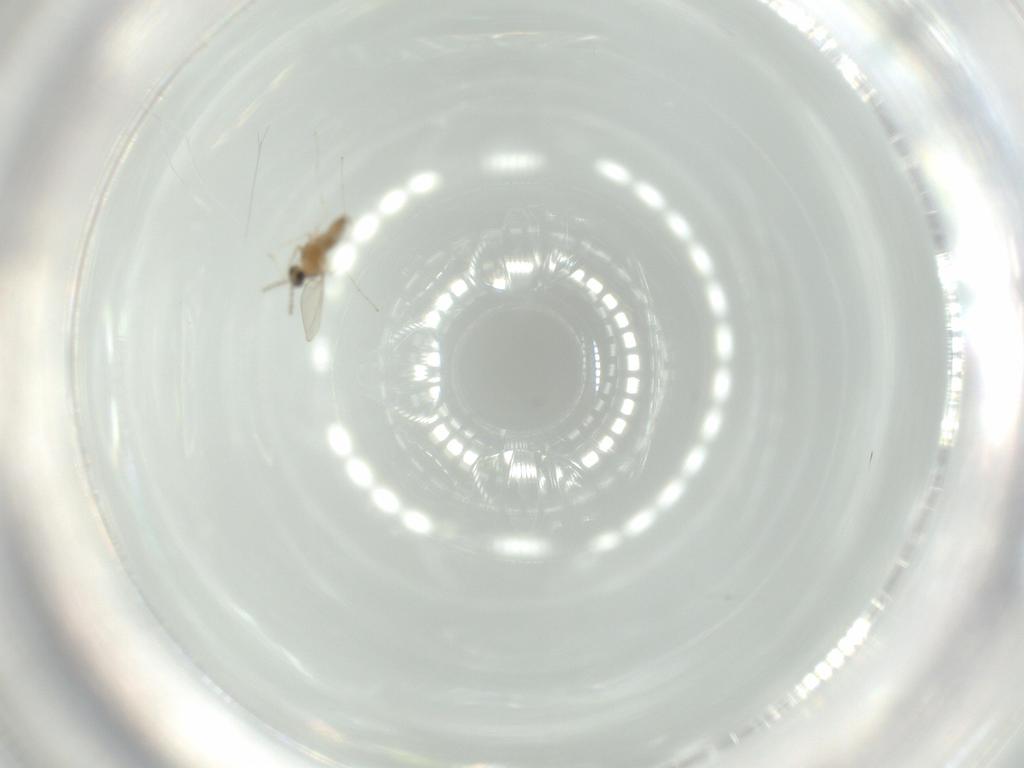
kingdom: Animalia
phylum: Arthropoda
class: Insecta
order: Diptera
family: Cecidomyiidae
